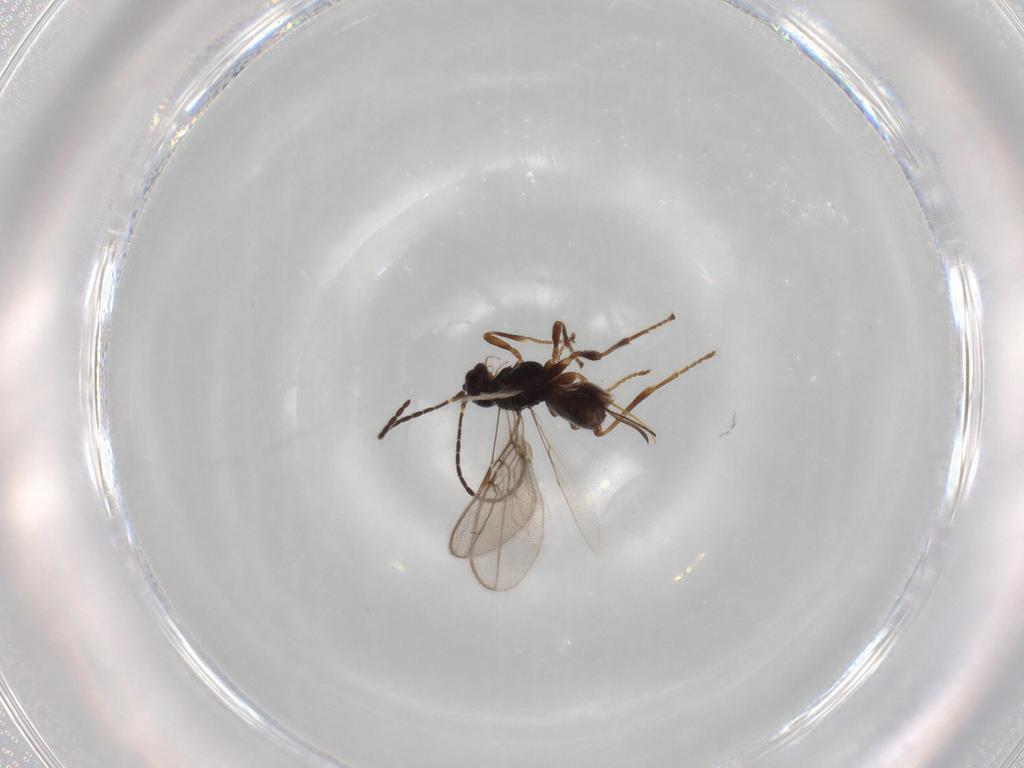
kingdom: Animalia
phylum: Arthropoda
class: Insecta
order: Hymenoptera
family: Braconidae
